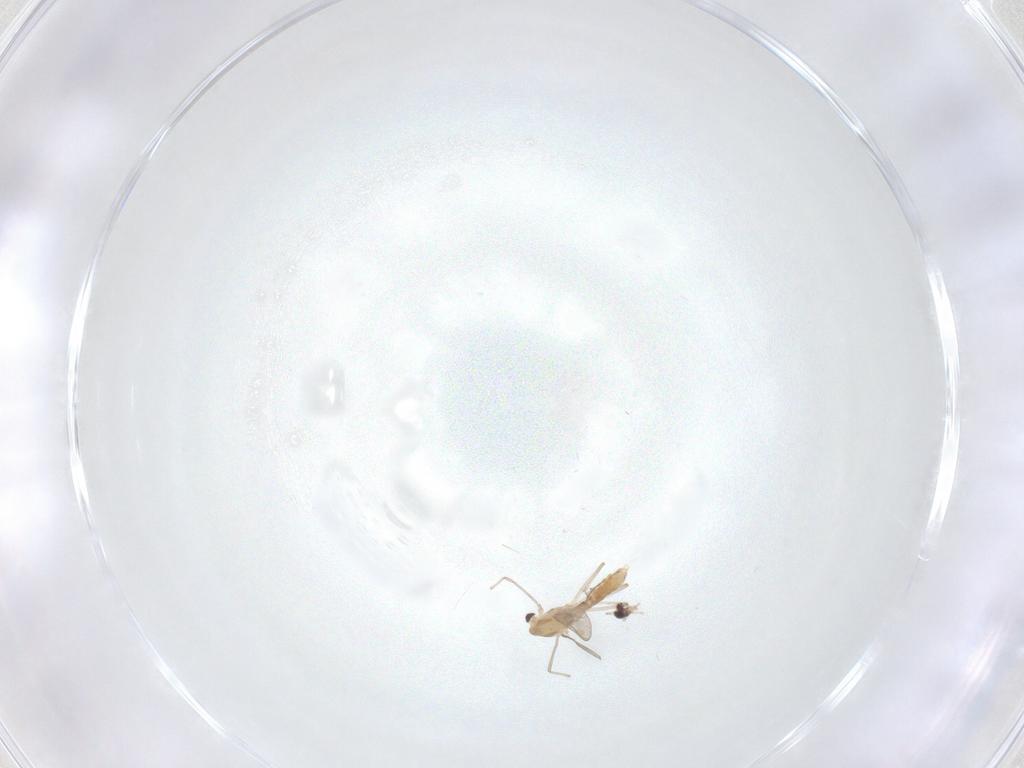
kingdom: Animalia
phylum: Arthropoda
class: Insecta
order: Diptera
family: Chironomidae
